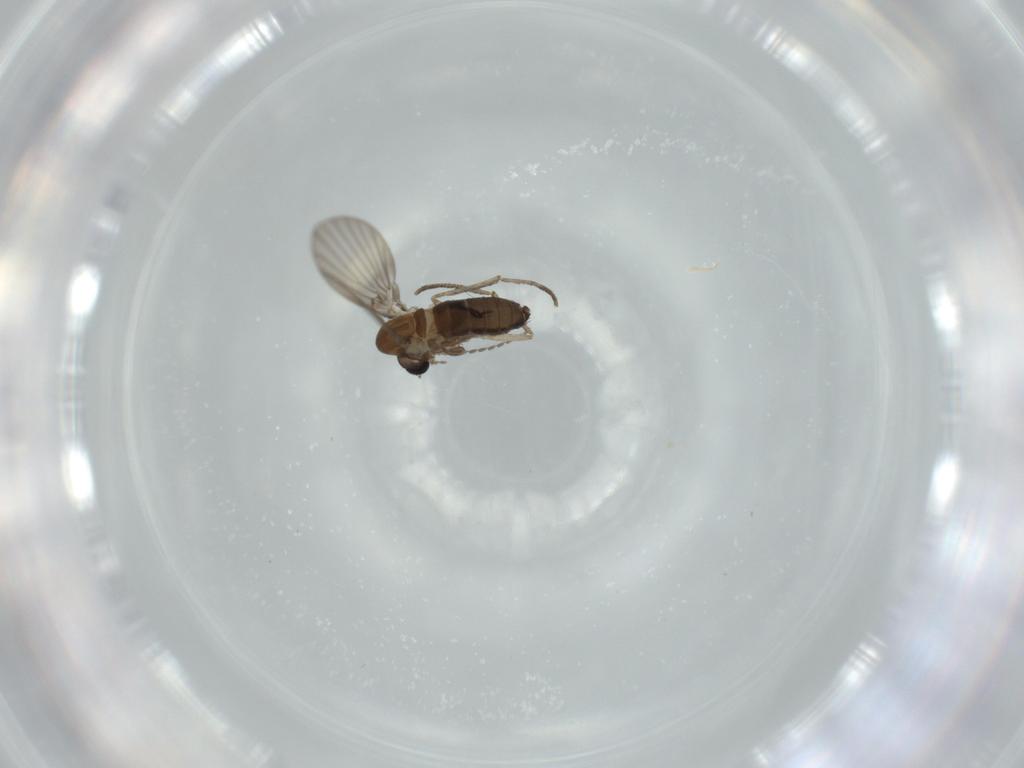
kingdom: Animalia
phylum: Arthropoda
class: Insecta
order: Diptera
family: Psychodidae
